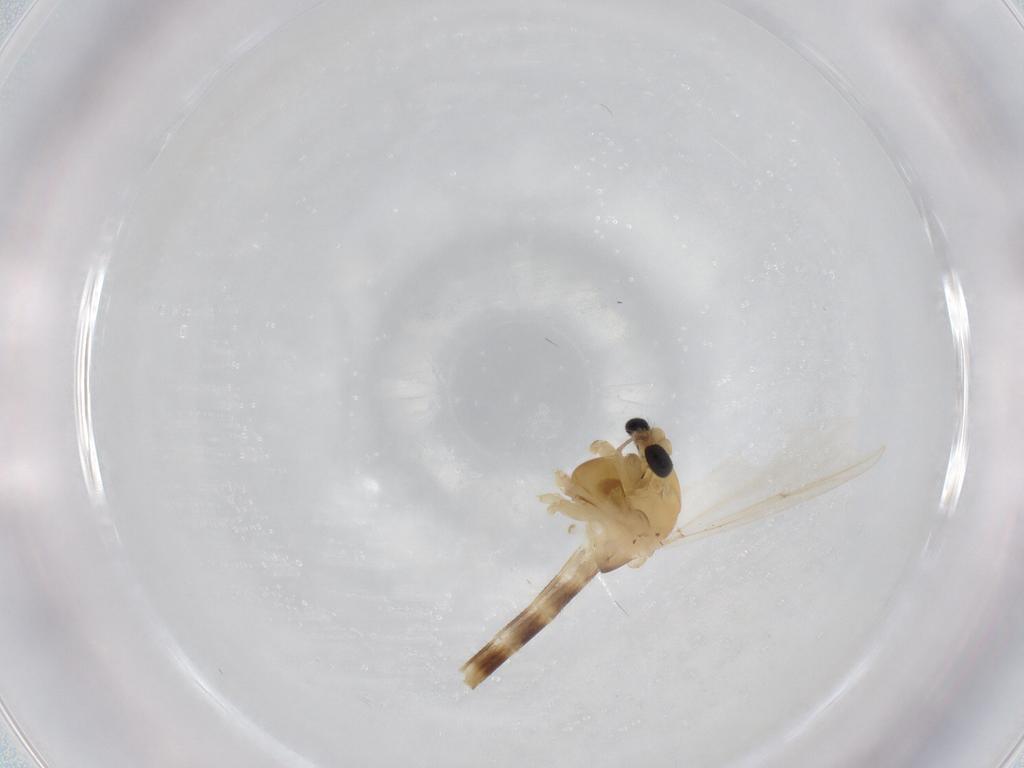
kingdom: Animalia
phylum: Arthropoda
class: Insecta
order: Diptera
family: Chironomidae
